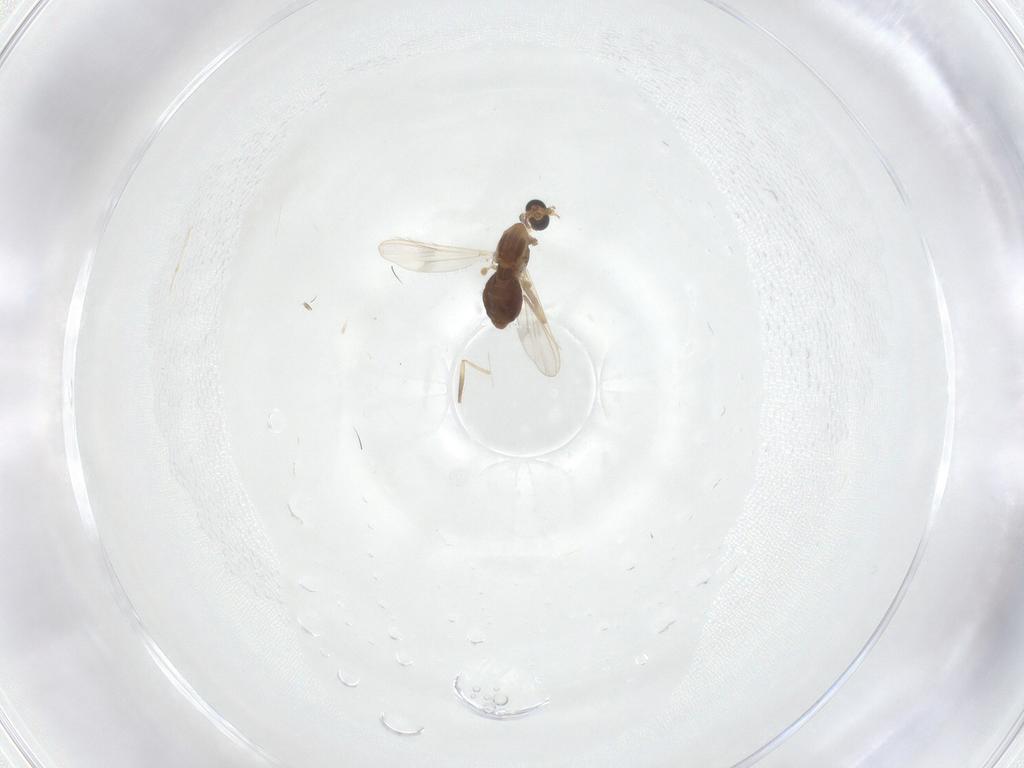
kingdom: Animalia
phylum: Arthropoda
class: Insecta
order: Diptera
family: Chironomidae
